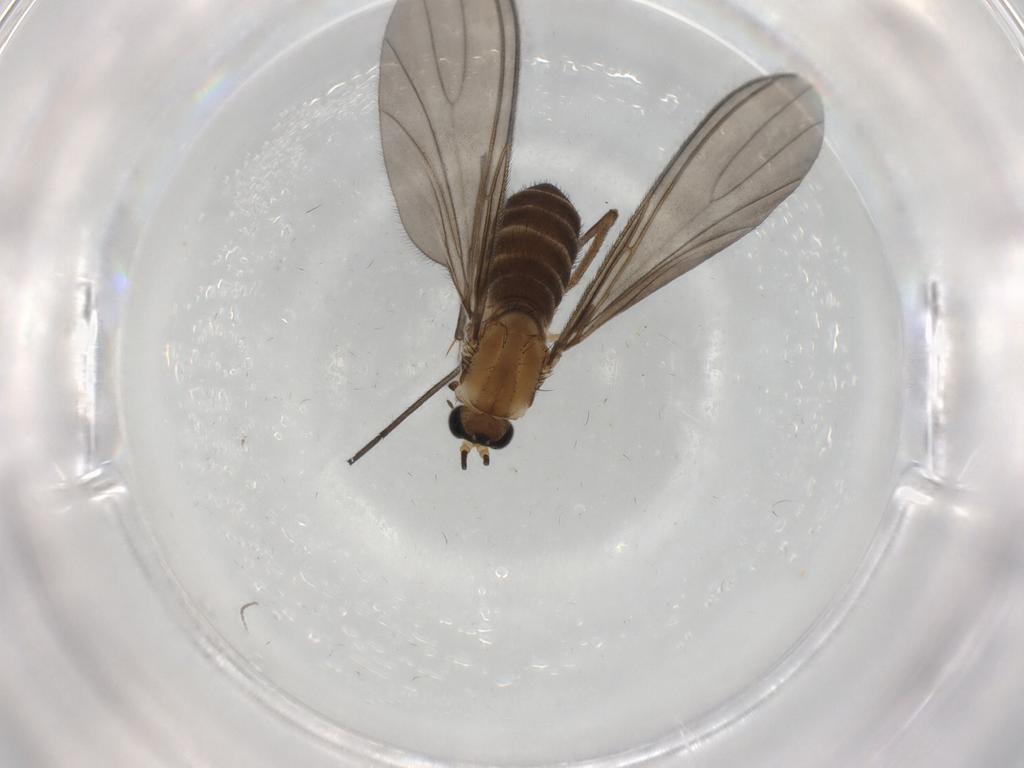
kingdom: Animalia
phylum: Arthropoda
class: Insecta
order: Diptera
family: Sciaridae
